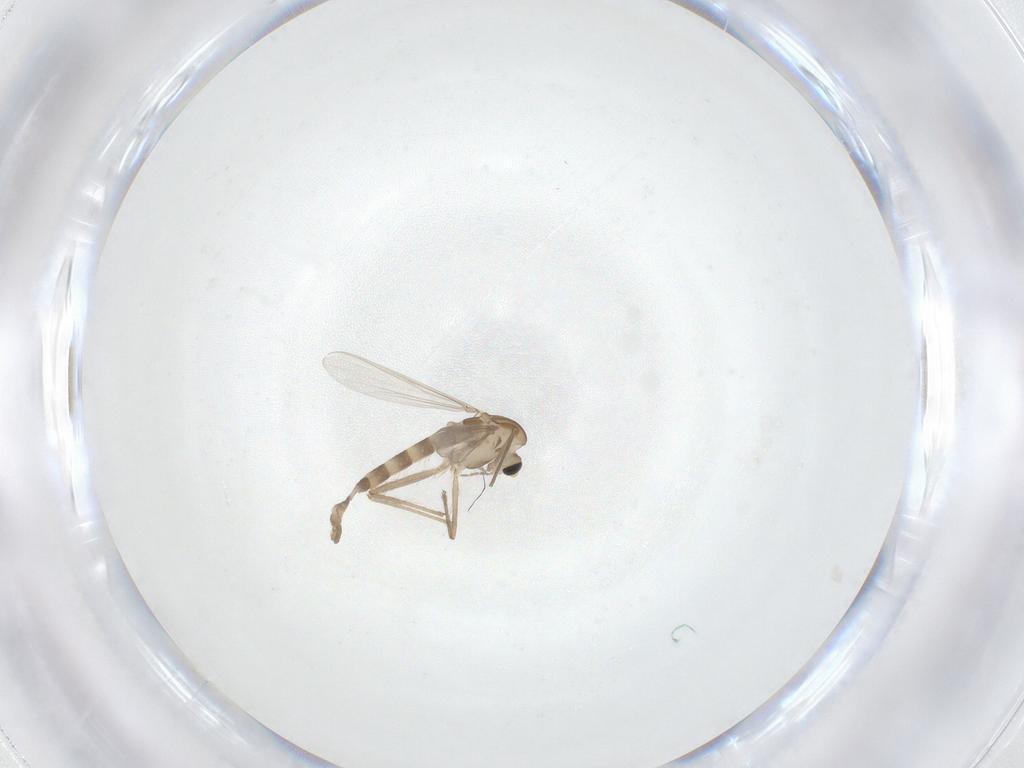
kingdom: Animalia
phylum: Arthropoda
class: Insecta
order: Diptera
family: Chironomidae
